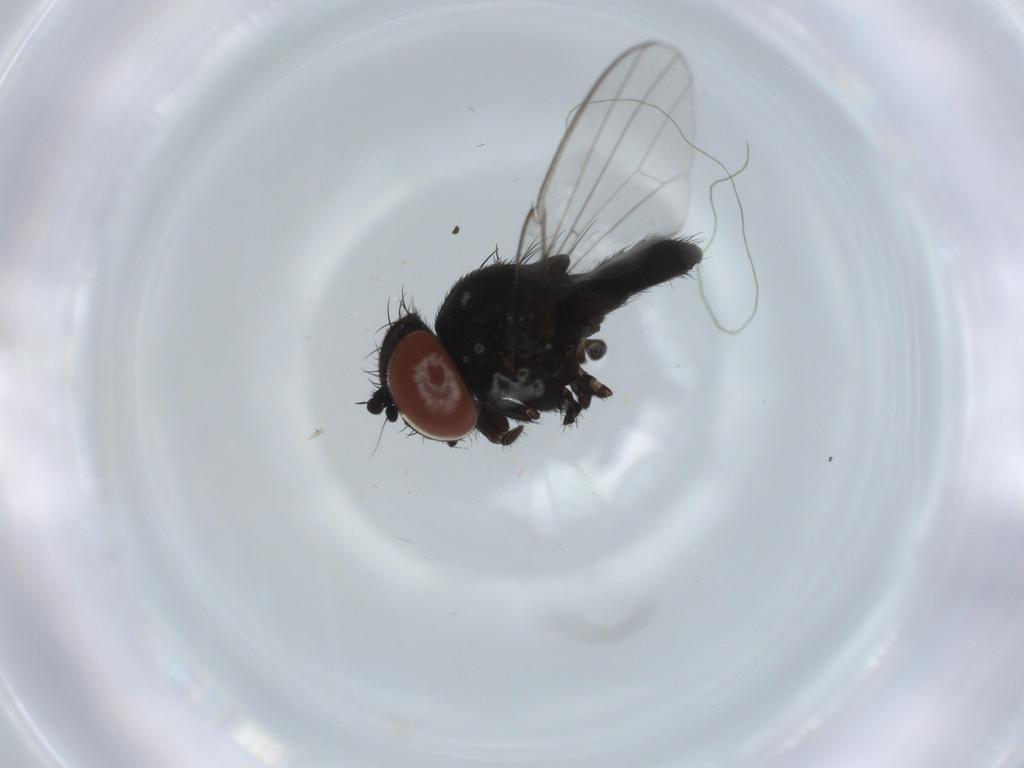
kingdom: Animalia
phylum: Arthropoda
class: Insecta
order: Diptera
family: Milichiidae
